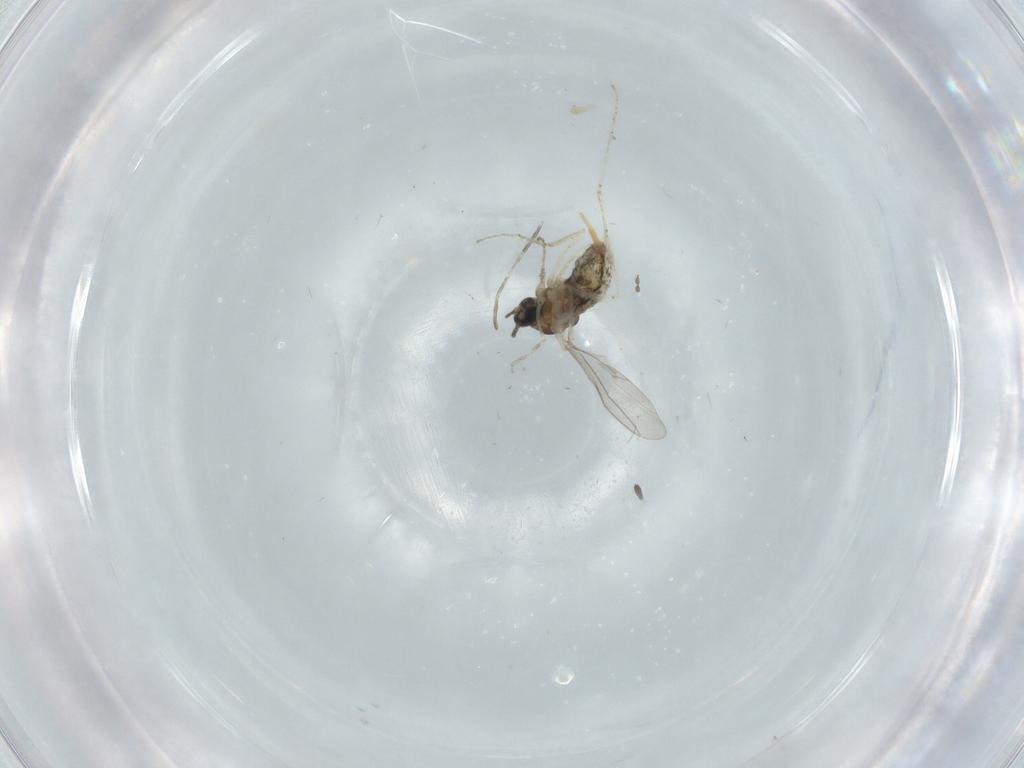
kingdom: Animalia
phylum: Arthropoda
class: Insecta
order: Diptera
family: Cecidomyiidae
